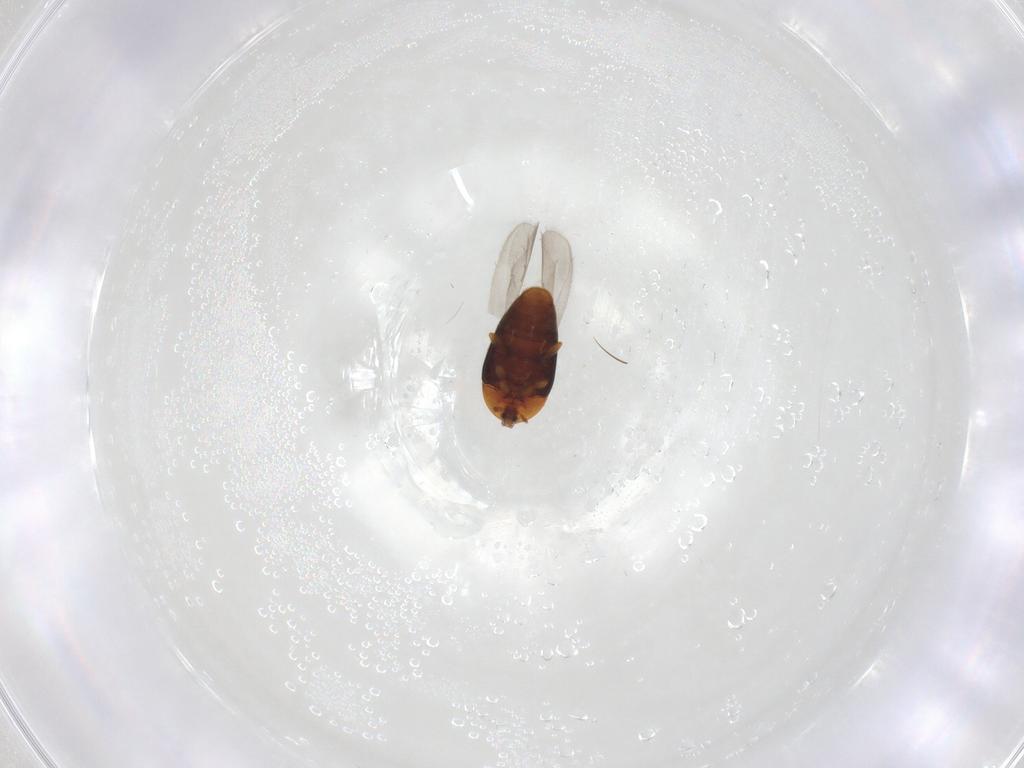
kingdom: Animalia
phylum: Arthropoda
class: Insecta
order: Coleoptera
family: Corylophidae
